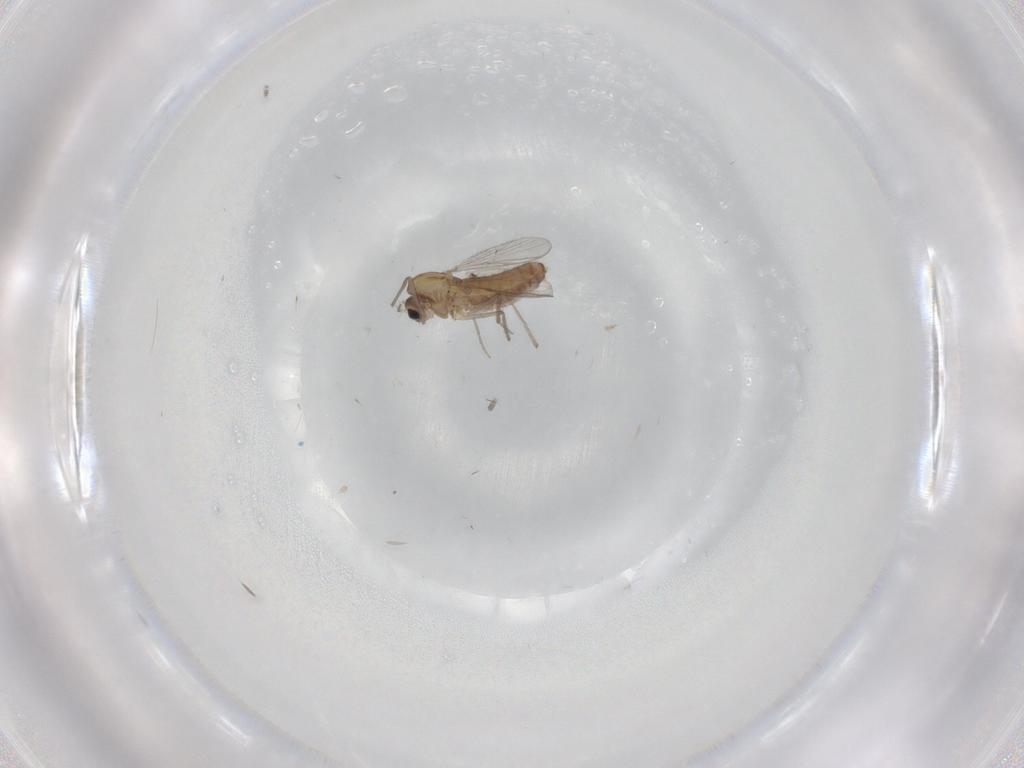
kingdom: Animalia
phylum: Arthropoda
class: Insecta
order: Diptera
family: Chironomidae
